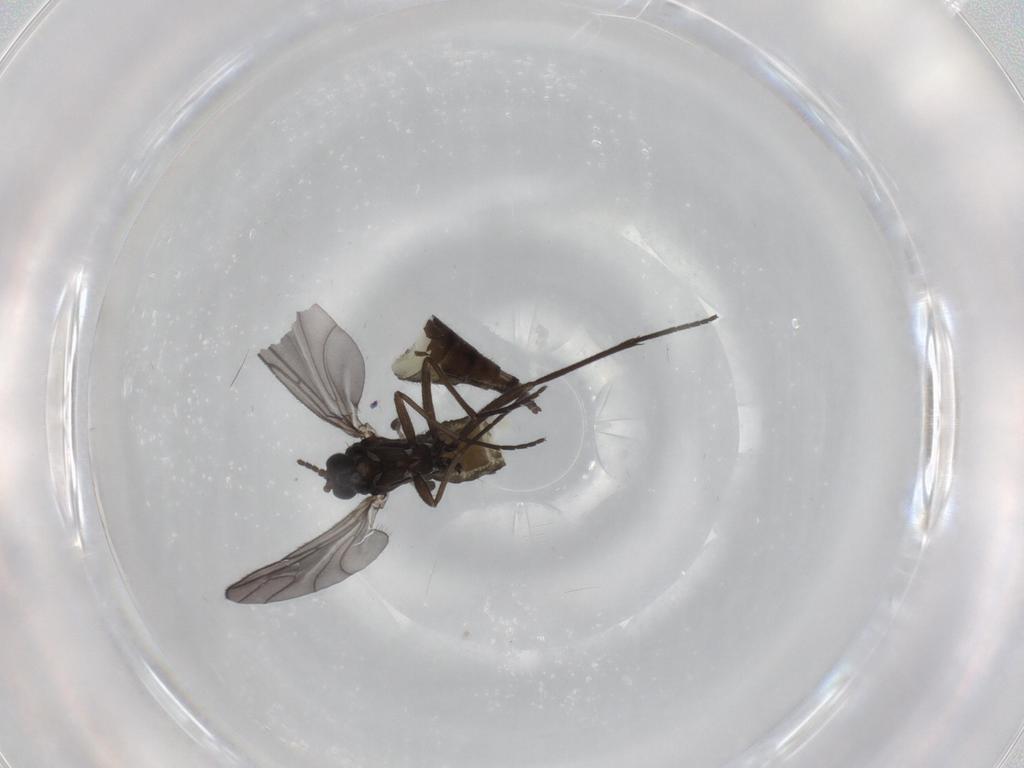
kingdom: Animalia
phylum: Arthropoda
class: Insecta
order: Diptera
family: Sciaridae
